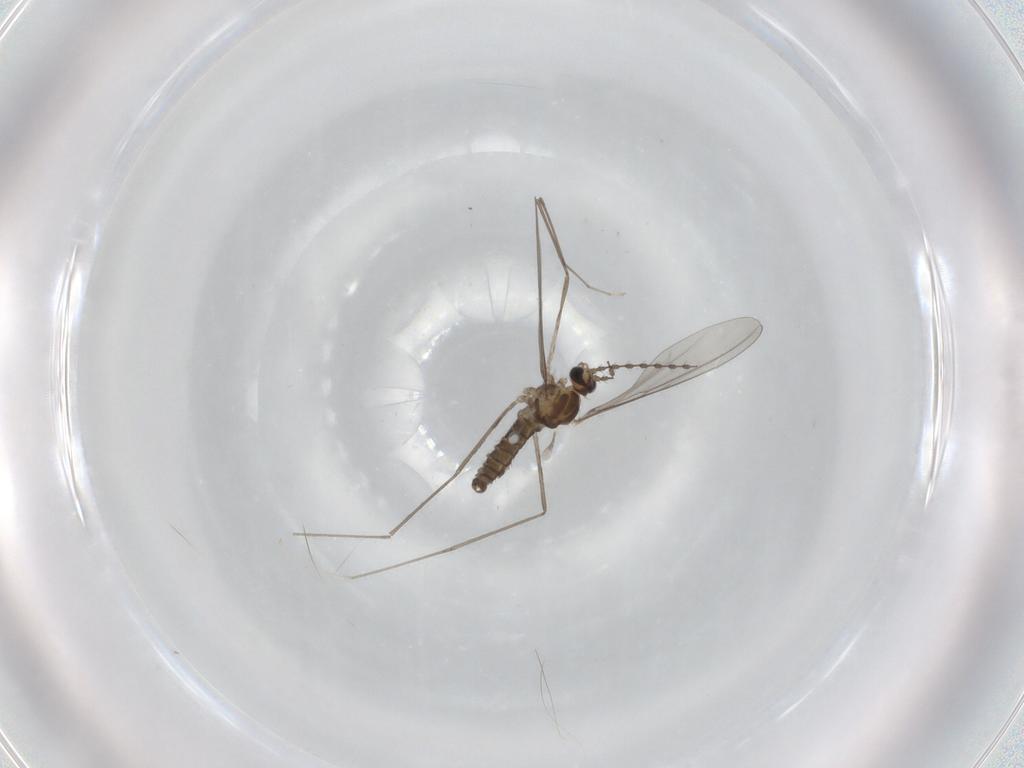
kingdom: Animalia
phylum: Arthropoda
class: Insecta
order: Diptera
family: Cecidomyiidae
